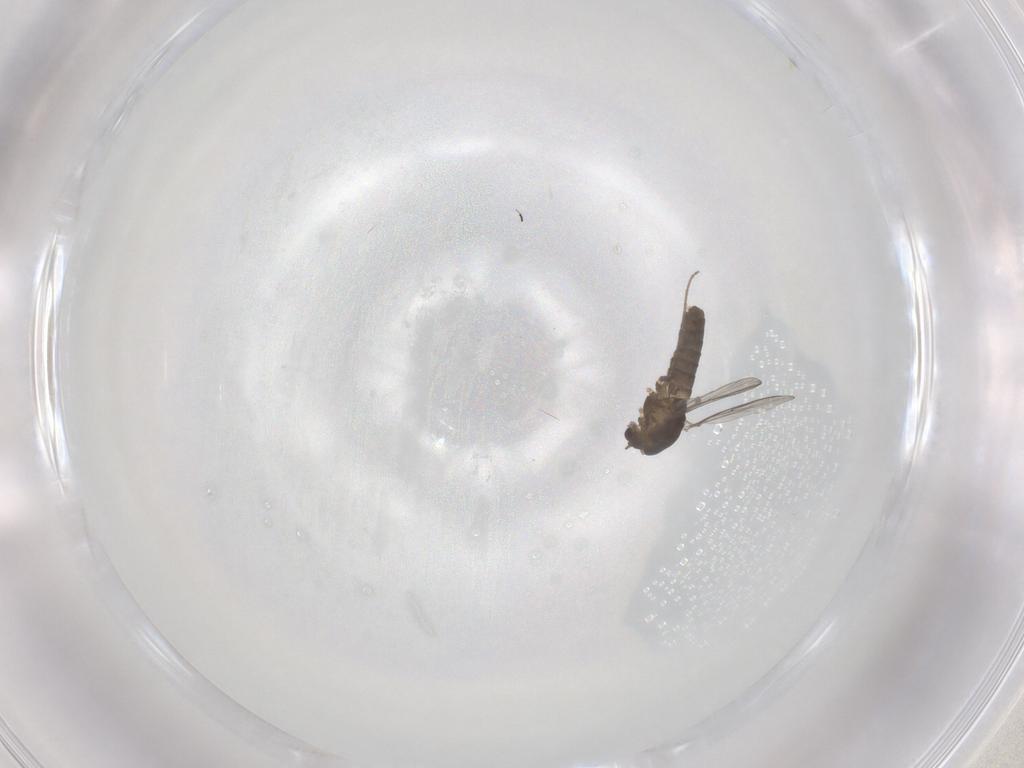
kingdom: Animalia
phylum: Arthropoda
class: Insecta
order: Diptera
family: Chironomidae
